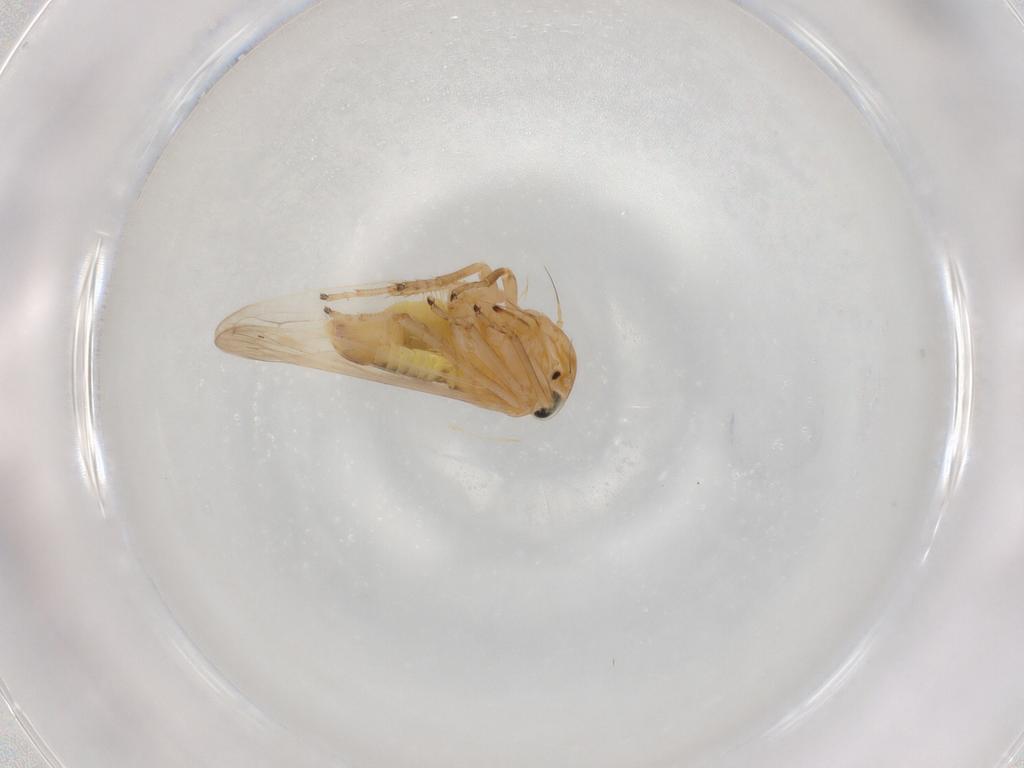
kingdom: Animalia
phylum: Arthropoda
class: Insecta
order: Hemiptera
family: Cicadellidae
